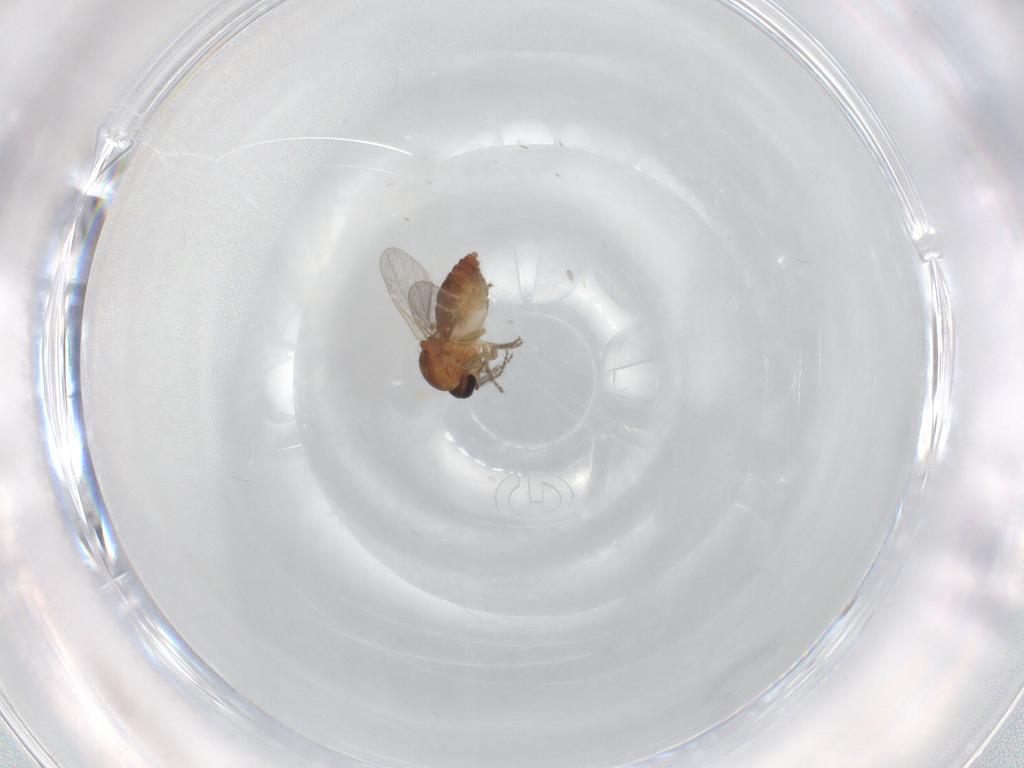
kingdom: Animalia
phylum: Arthropoda
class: Insecta
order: Diptera
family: Ceratopogonidae
